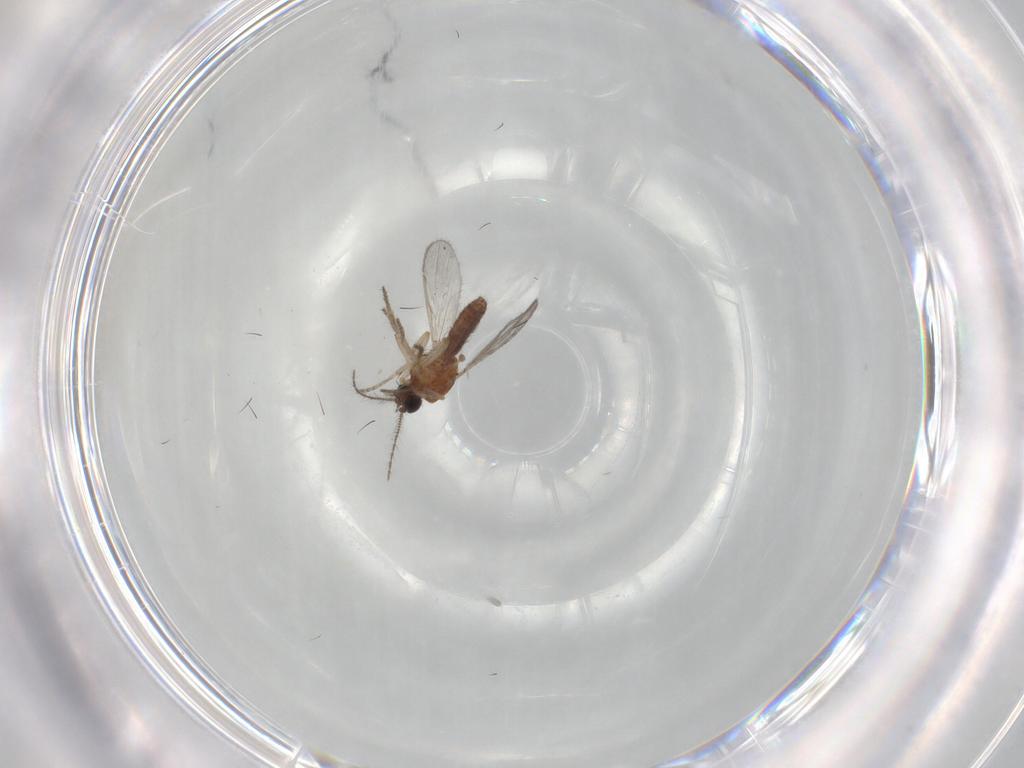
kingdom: Animalia
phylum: Arthropoda
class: Insecta
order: Diptera
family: Ceratopogonidae
